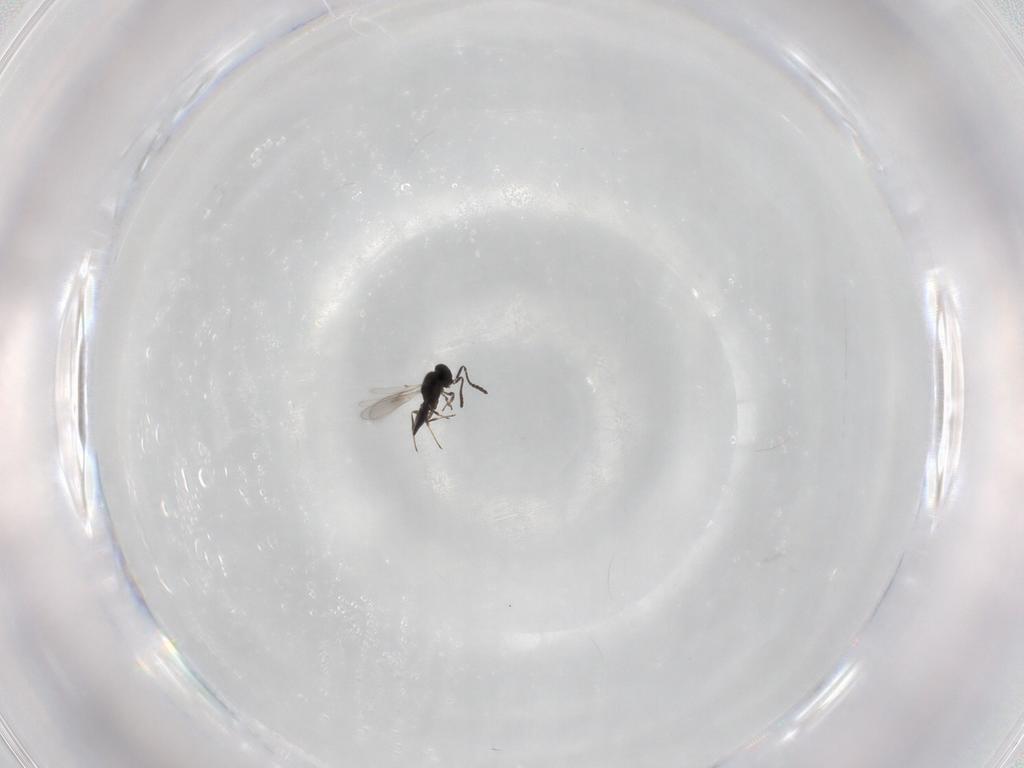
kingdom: Animalia
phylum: Arthropoda
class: Insecta
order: Hymenoptera
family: Scelionidae
